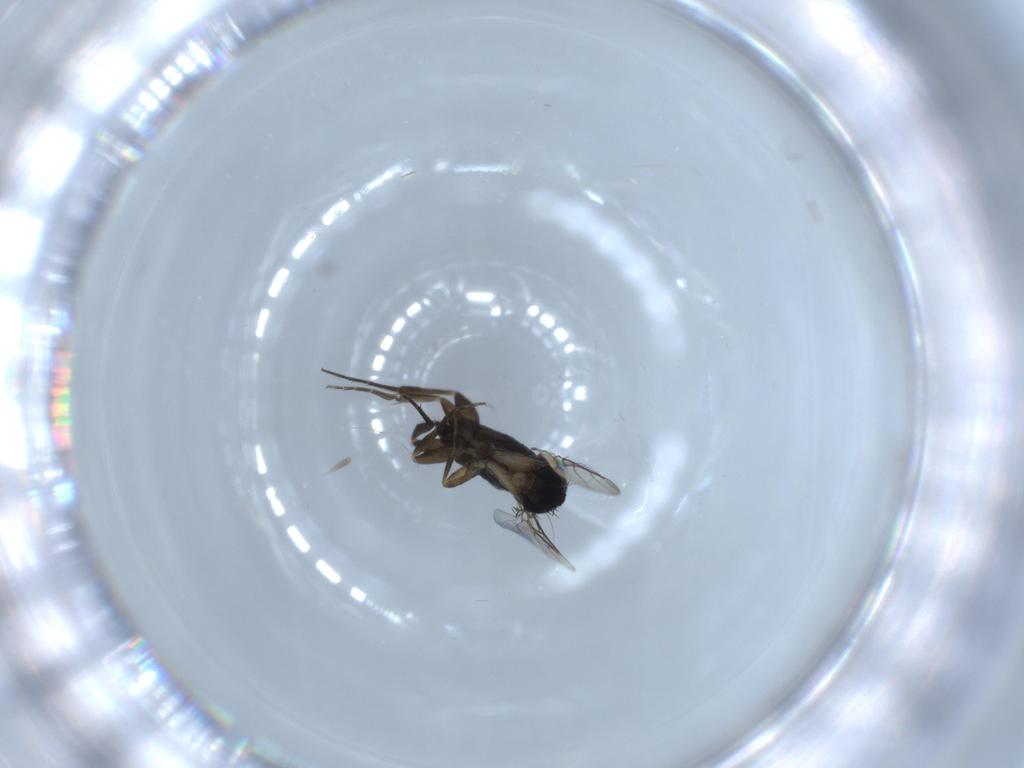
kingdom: Animalia
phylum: Arthropoda
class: Insecta
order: Diptera
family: Phoridae
